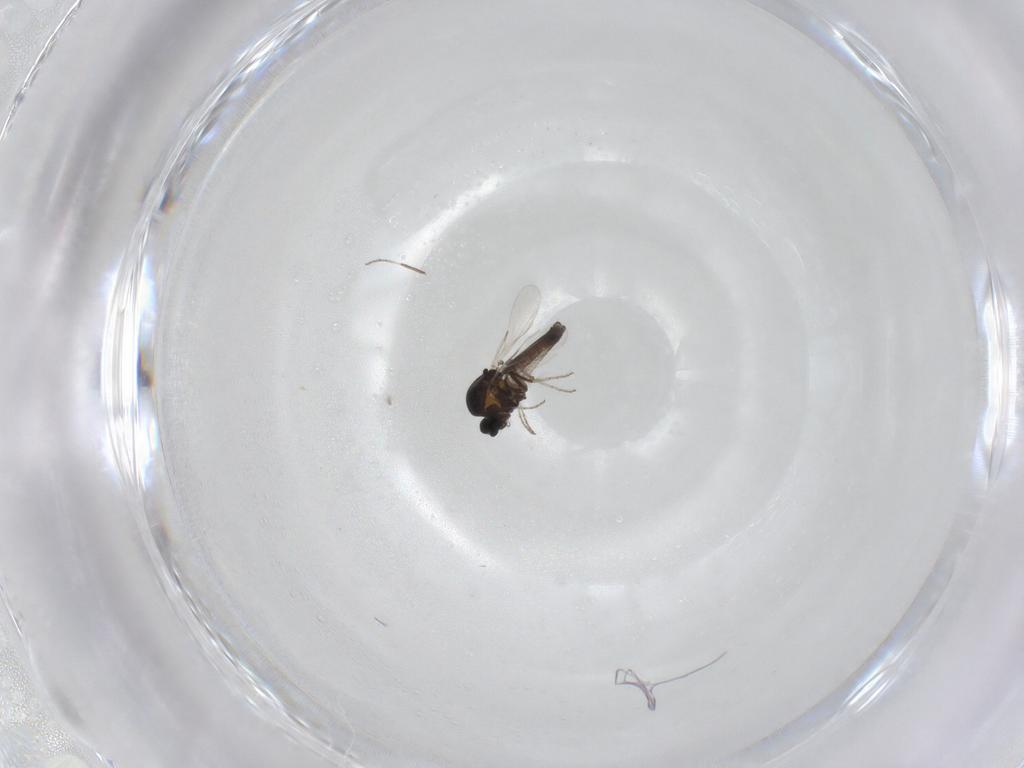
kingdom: Animalia
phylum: Arthropoda
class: Insecta
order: Diptera
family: Ceratopogonidae
